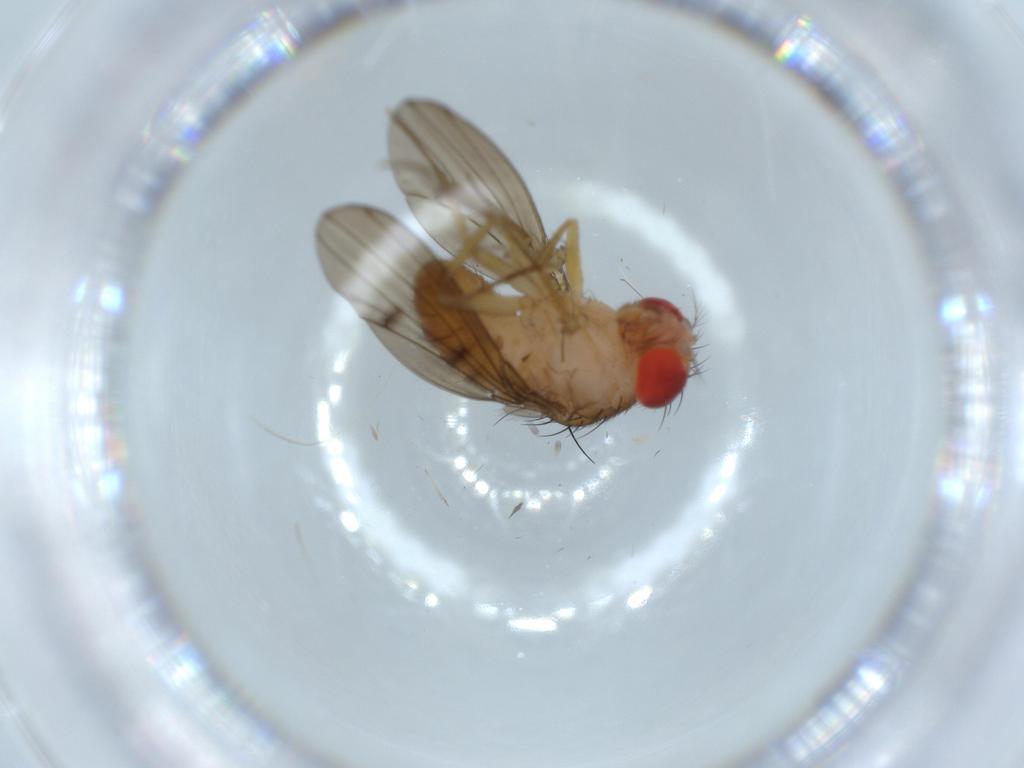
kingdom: Animalia
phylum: Arthropoda
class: Insecta
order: Diptera
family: Drosophilidae
